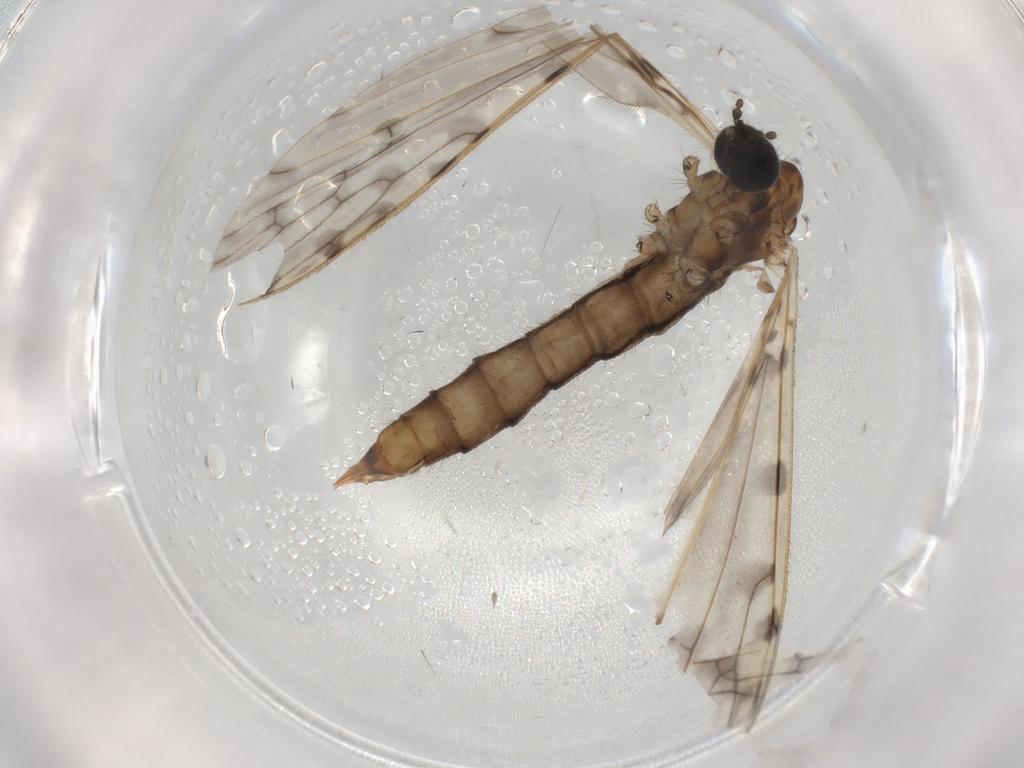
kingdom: Animalia
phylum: Arthropoda
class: Insecta
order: Diptera
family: Limoniidae
